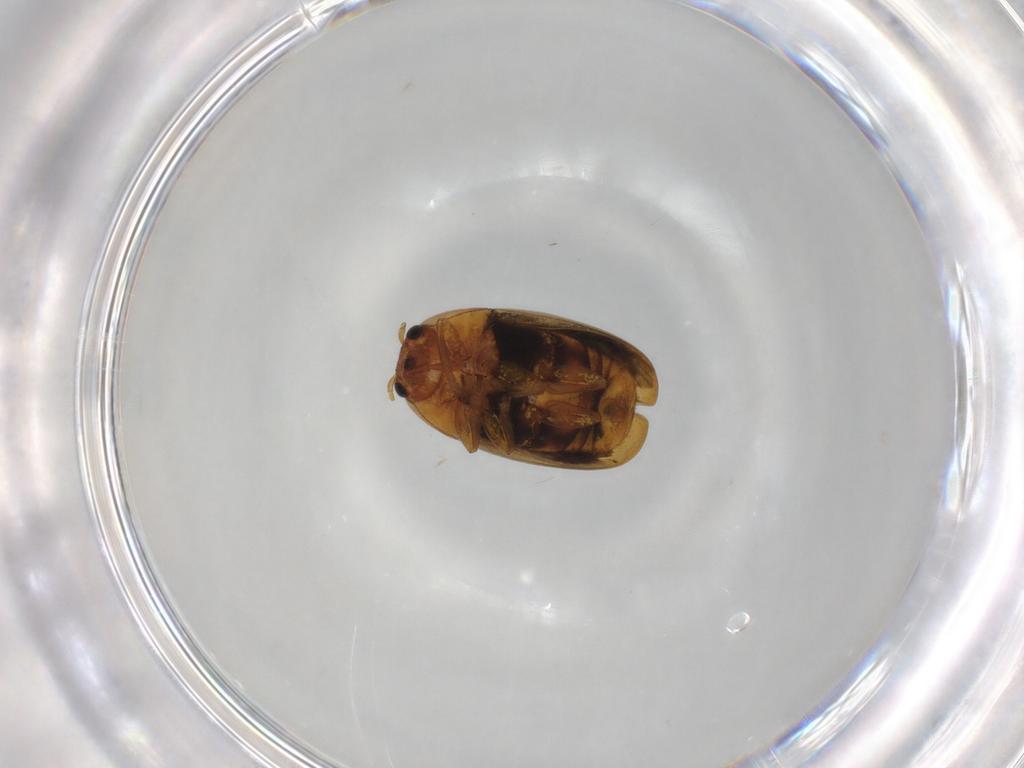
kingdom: Animalia
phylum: Arthropoda
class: Insecta
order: Coleoptera
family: Chrysomelidae
